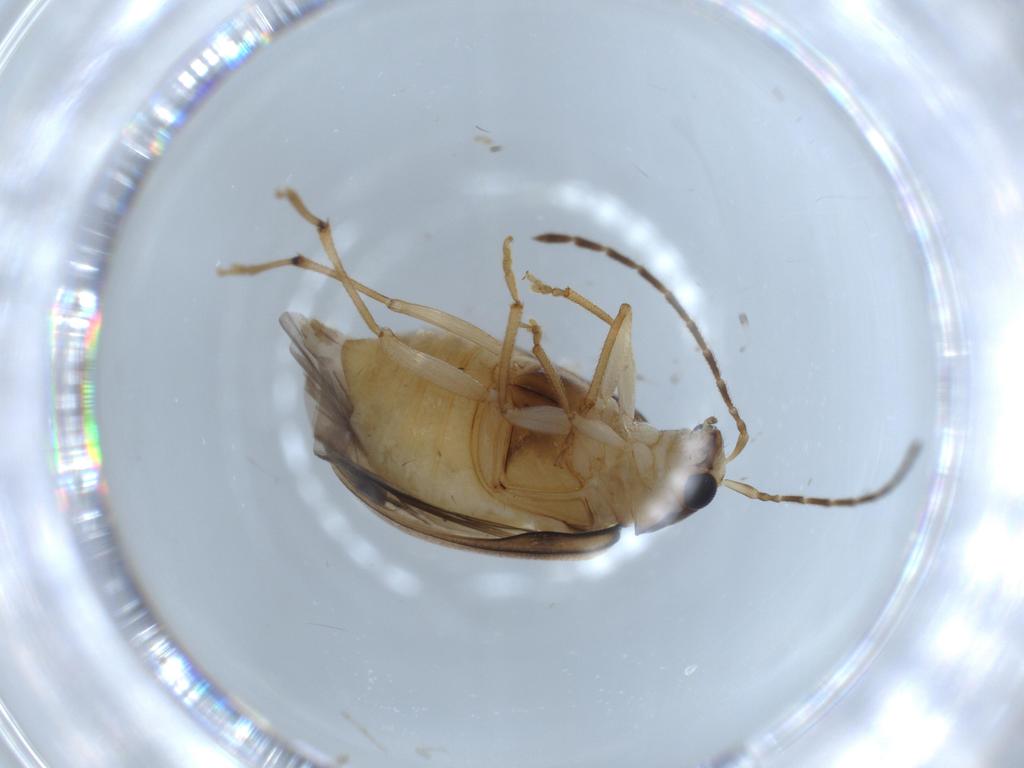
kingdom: Animalia
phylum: Arthropoda
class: Insecta
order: Coleoptera
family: Chrysomelidae
